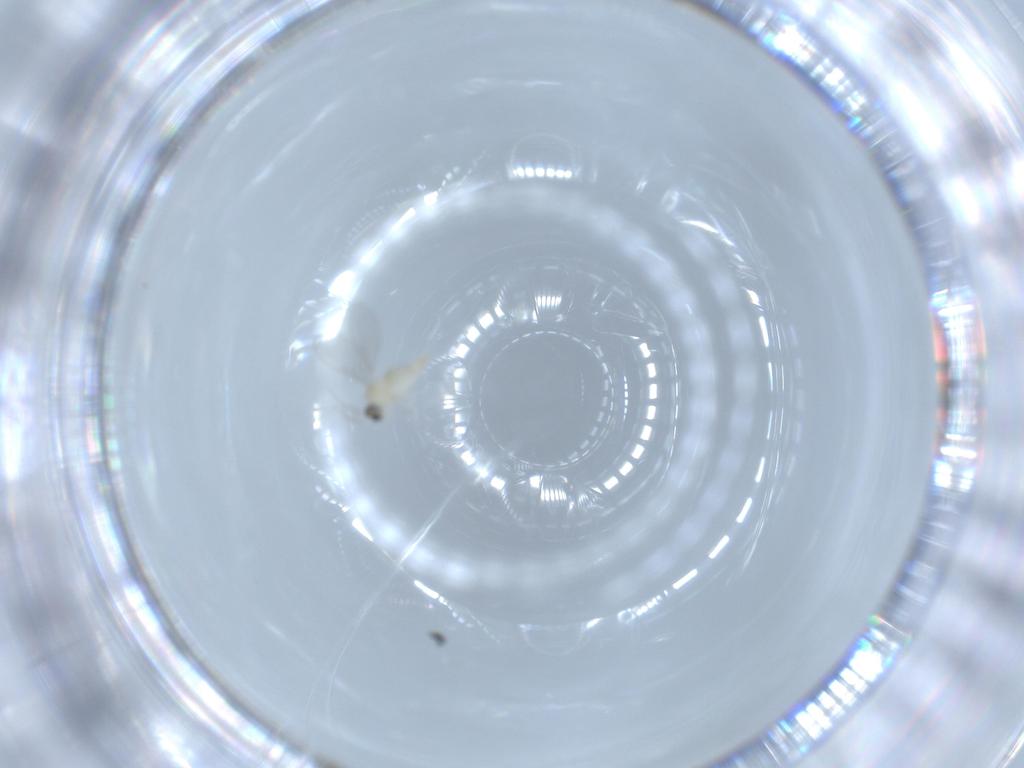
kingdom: Animalia
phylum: Arthropoda
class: Insecta
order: Diptera
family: Cecidomyiidae
